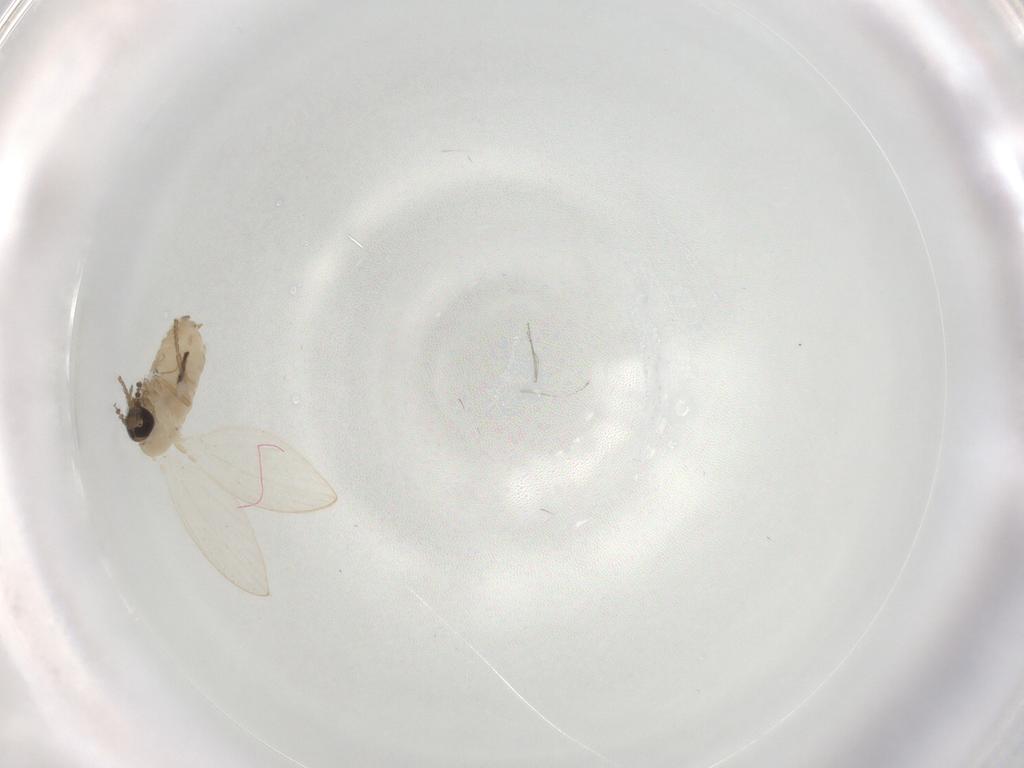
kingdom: Animalia
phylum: Arthropoda
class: Insecta
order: Diptera
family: Psychodidae
